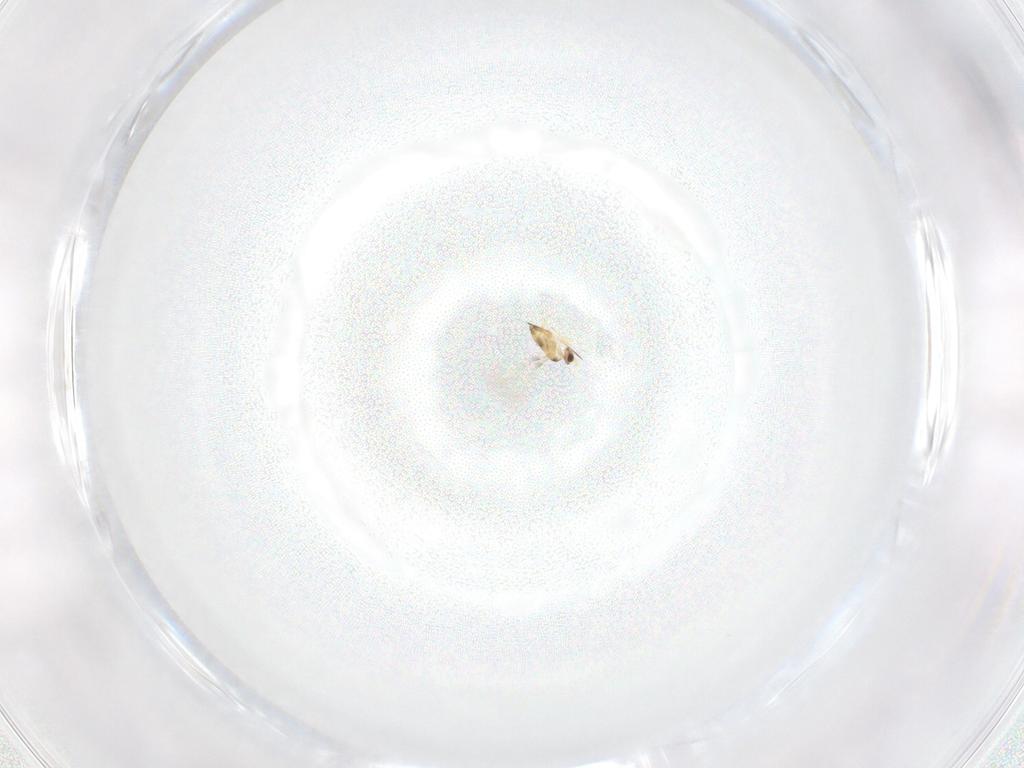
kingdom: Animalia
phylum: Arthropoda
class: Insecta
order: Hymenoptera
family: Mymaridae
